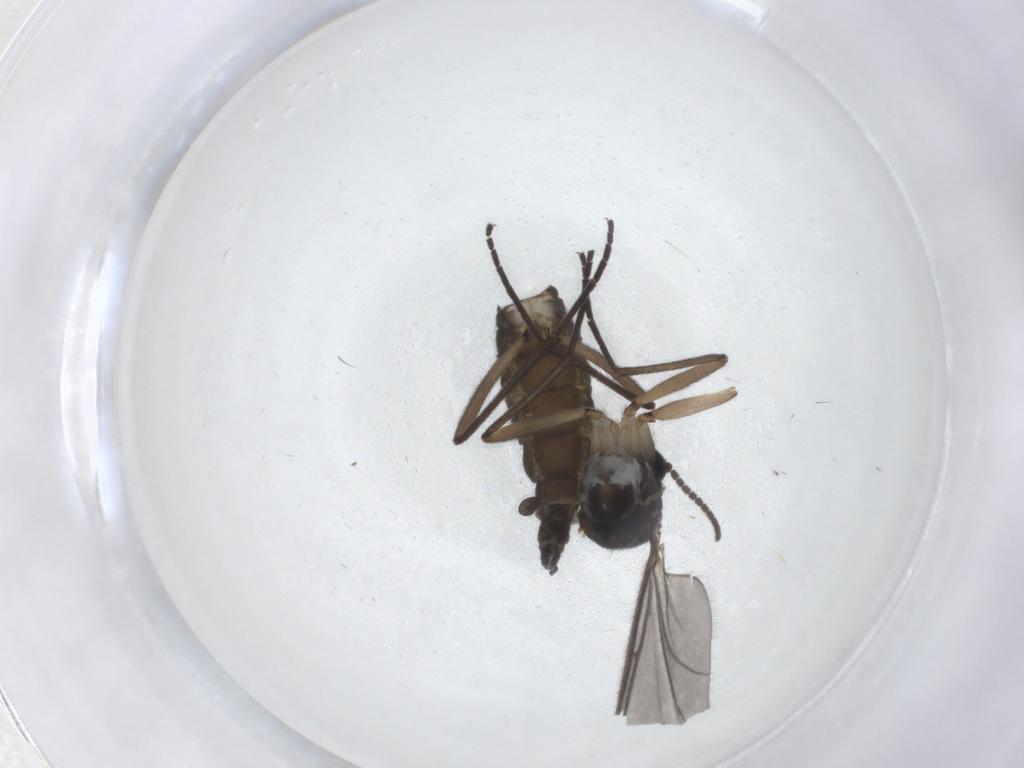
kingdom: Animalia
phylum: Arthropoda
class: Insecta
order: Diptera
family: Sciaridae
